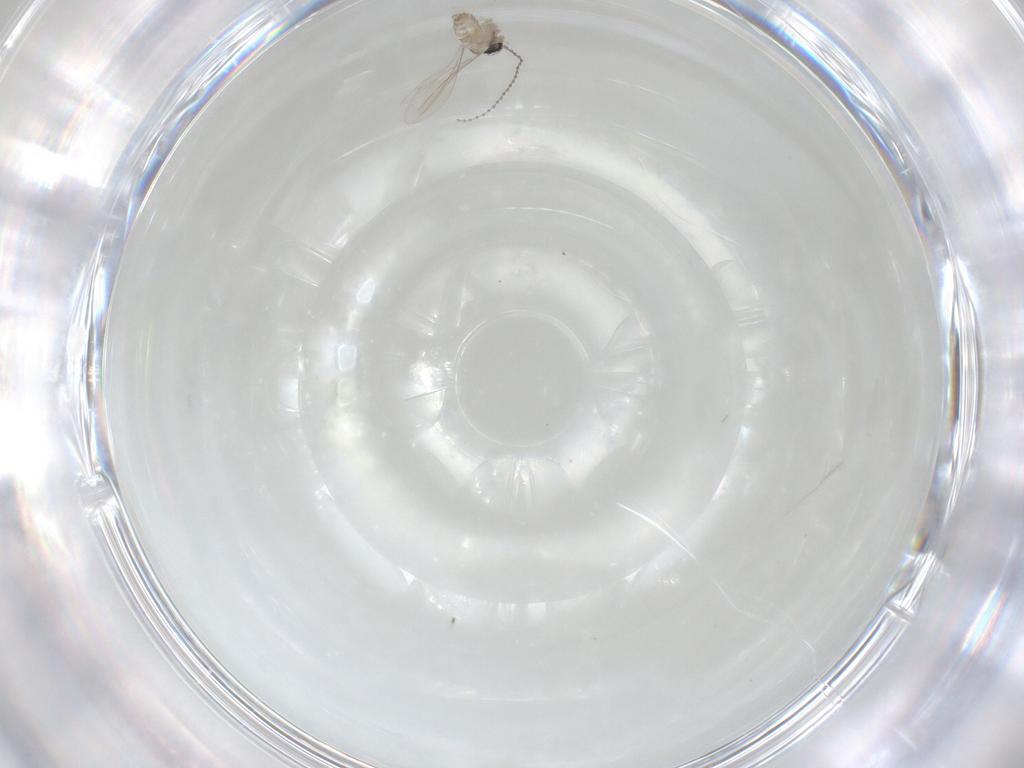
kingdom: Animalia
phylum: Arthropoda
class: Insecta
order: Diptera
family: Cecidomyiidae
